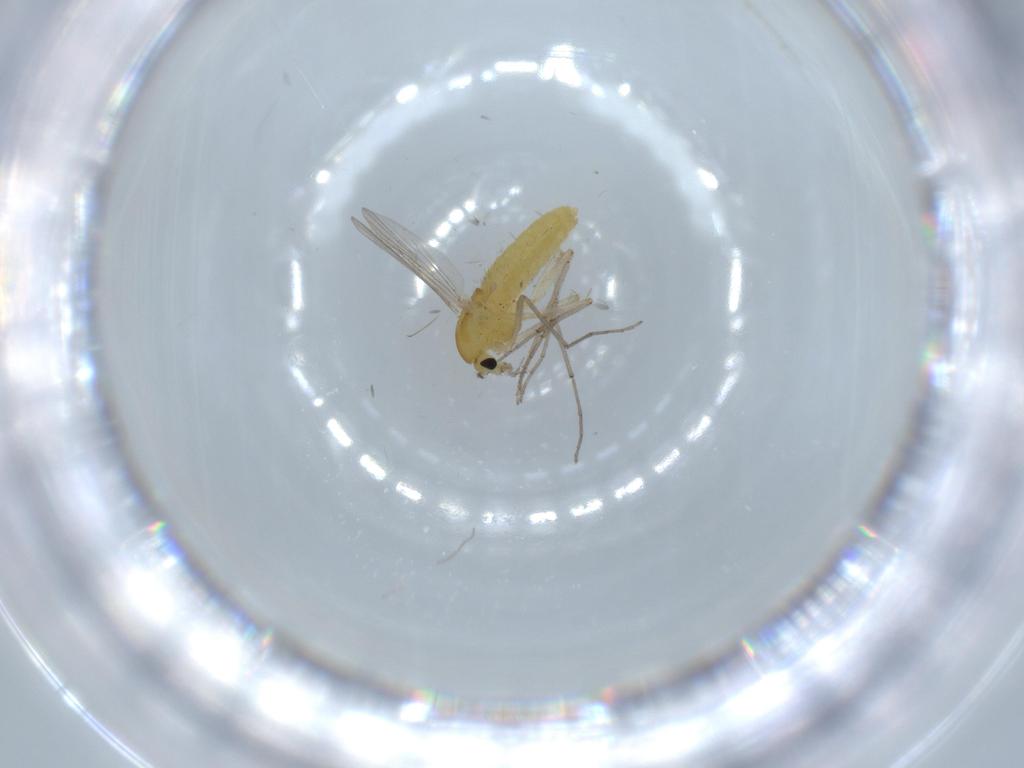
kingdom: Animalia
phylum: Arthropoda
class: Insecta
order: Diptera
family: Chironomidae
